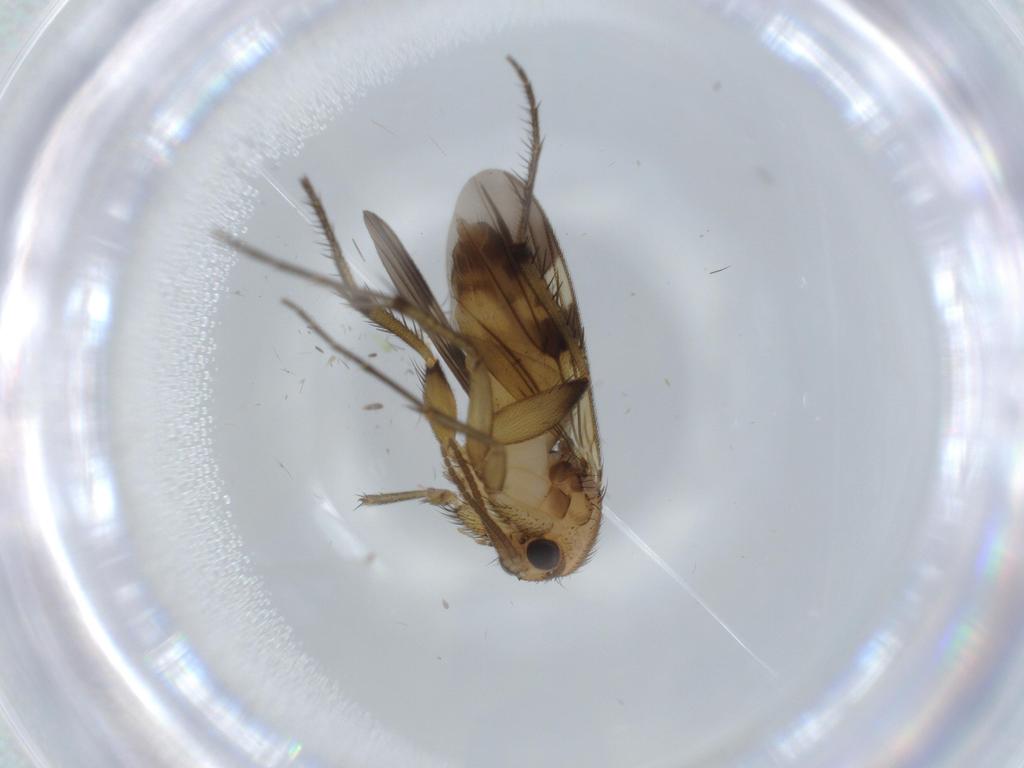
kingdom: Animalia
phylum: Arthropoda
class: Insecta
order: Diptera
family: Mycetophilidae
